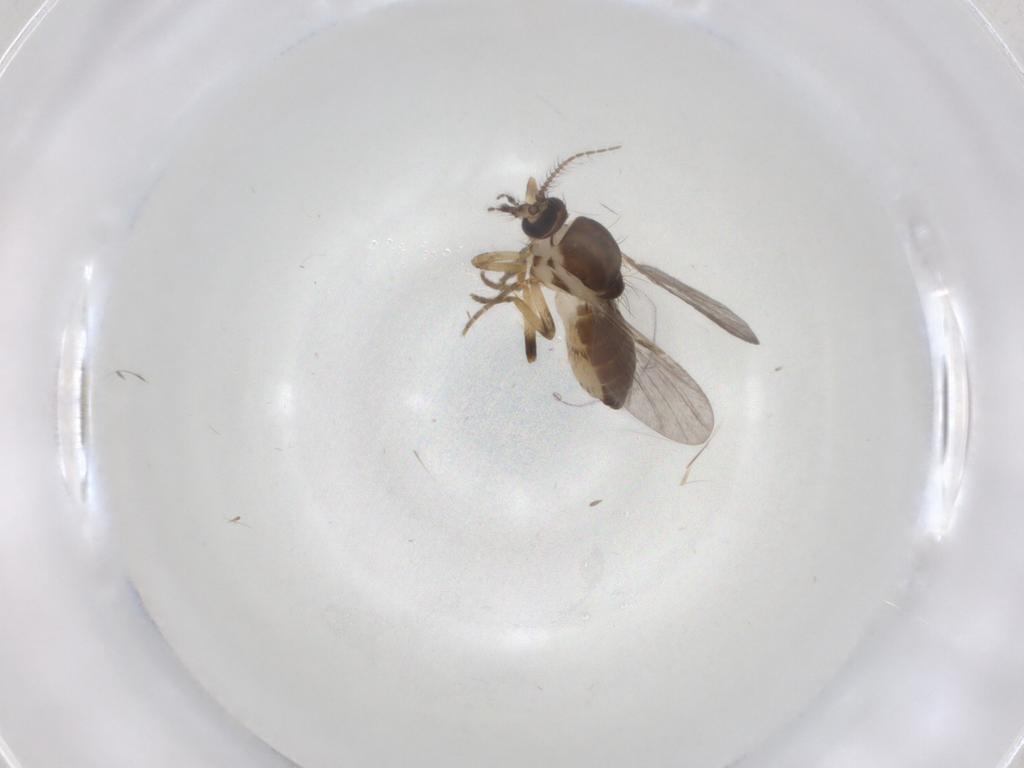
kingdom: Animalia
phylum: Arthropoda
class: Insecta
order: Diptera
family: Ceratopogonidae
